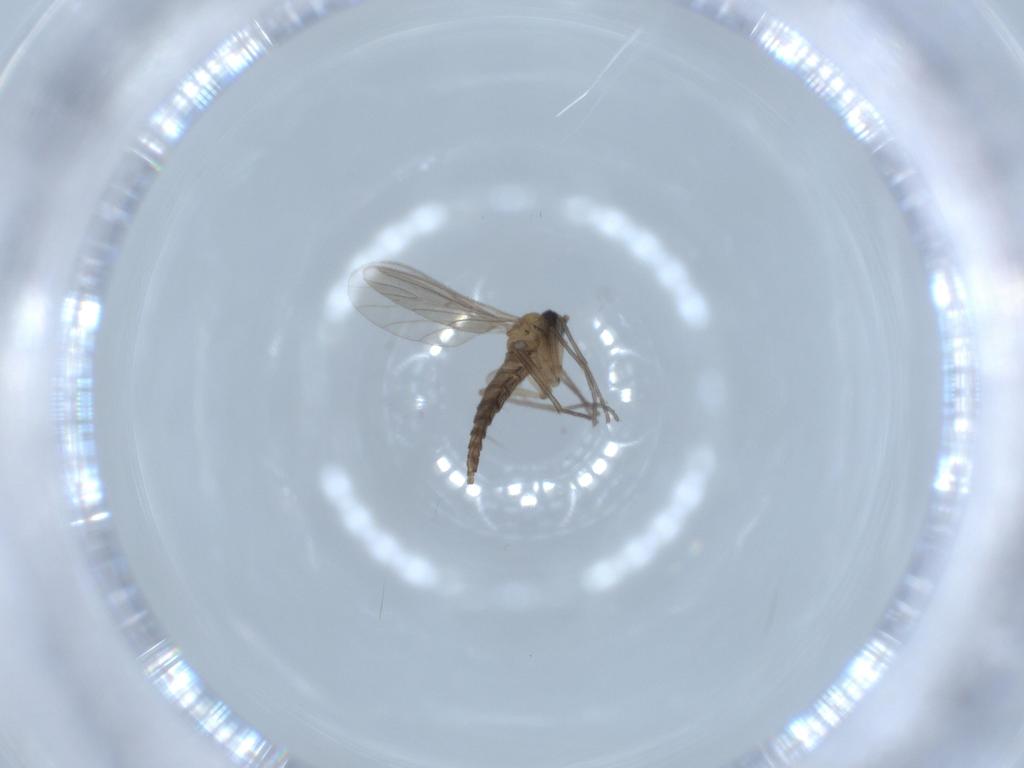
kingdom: Animalia
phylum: Arthropoda
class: Insecta
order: Diptera
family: Sciaridae
